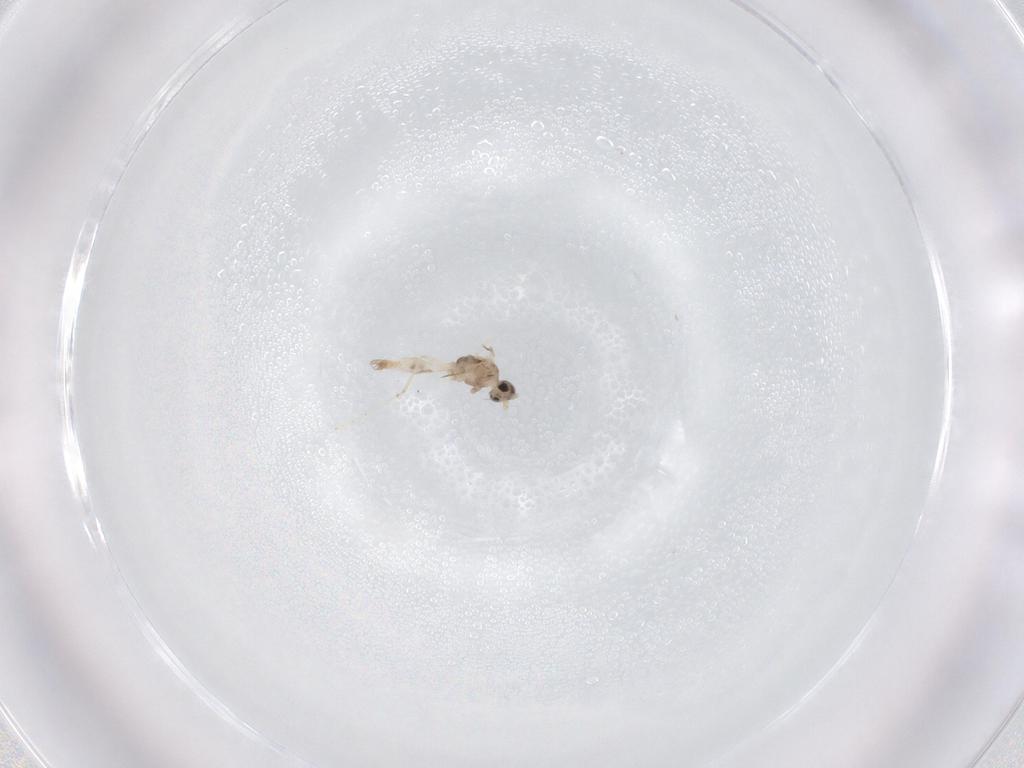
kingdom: Animalia
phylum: Arthropoda
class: Insecta
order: Diptera
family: Cecidomyiidae
